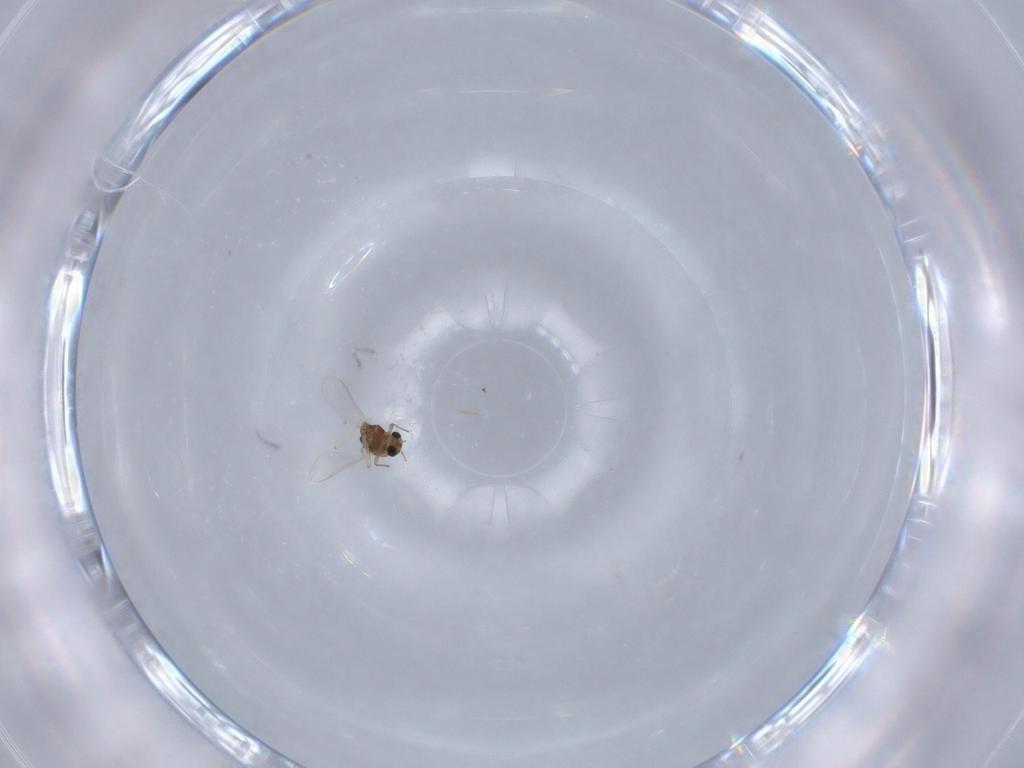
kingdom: Animalia
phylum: Arthropoda
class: Insecta
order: Diptera
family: Chironomidae
